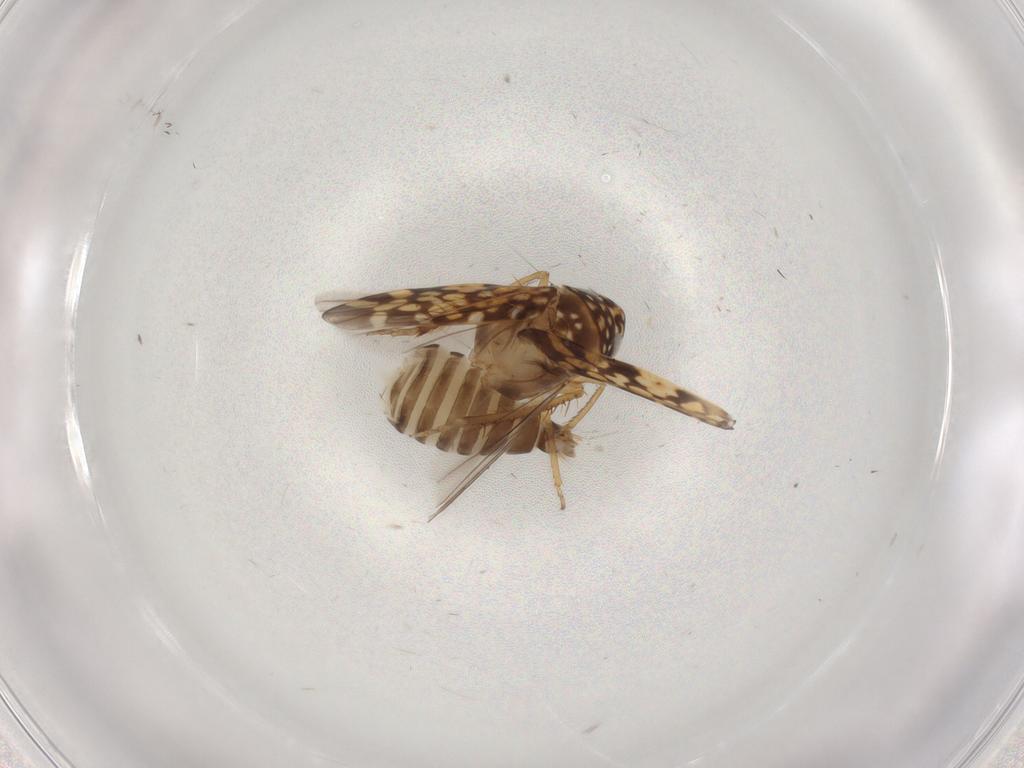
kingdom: Animalia
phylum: Arthropoda
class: Insecta
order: Hemiptera
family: Cicadellidae
